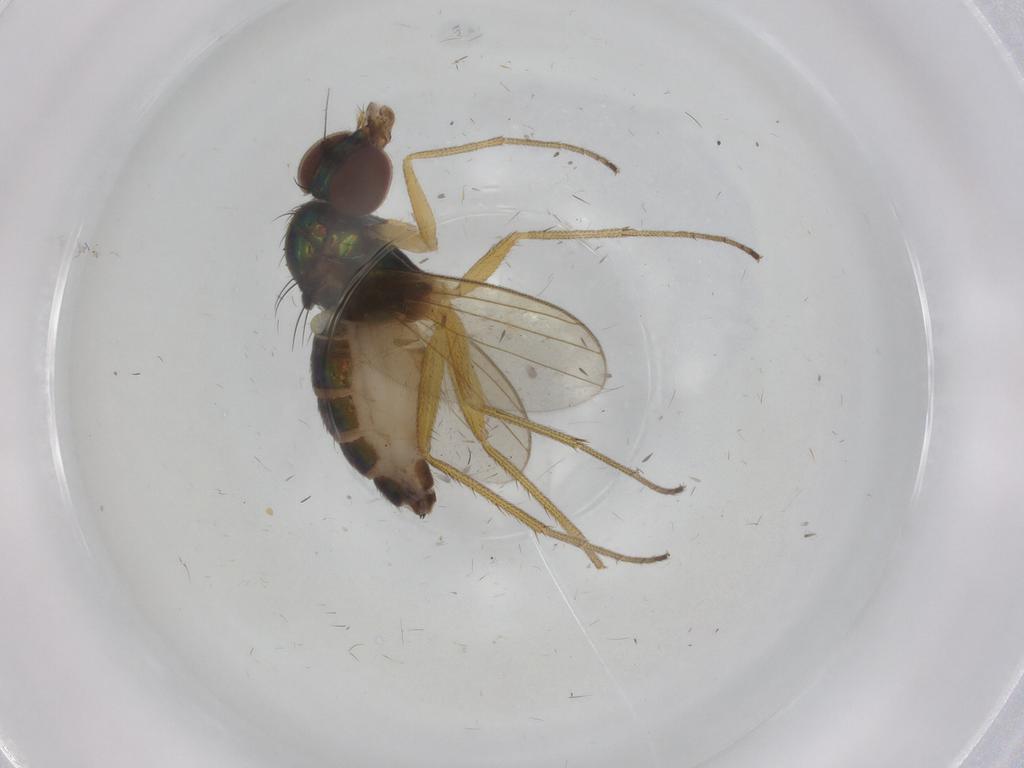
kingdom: Animalia
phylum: Arthropoda
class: Insecta
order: Diptera
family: Dolichopodidae
